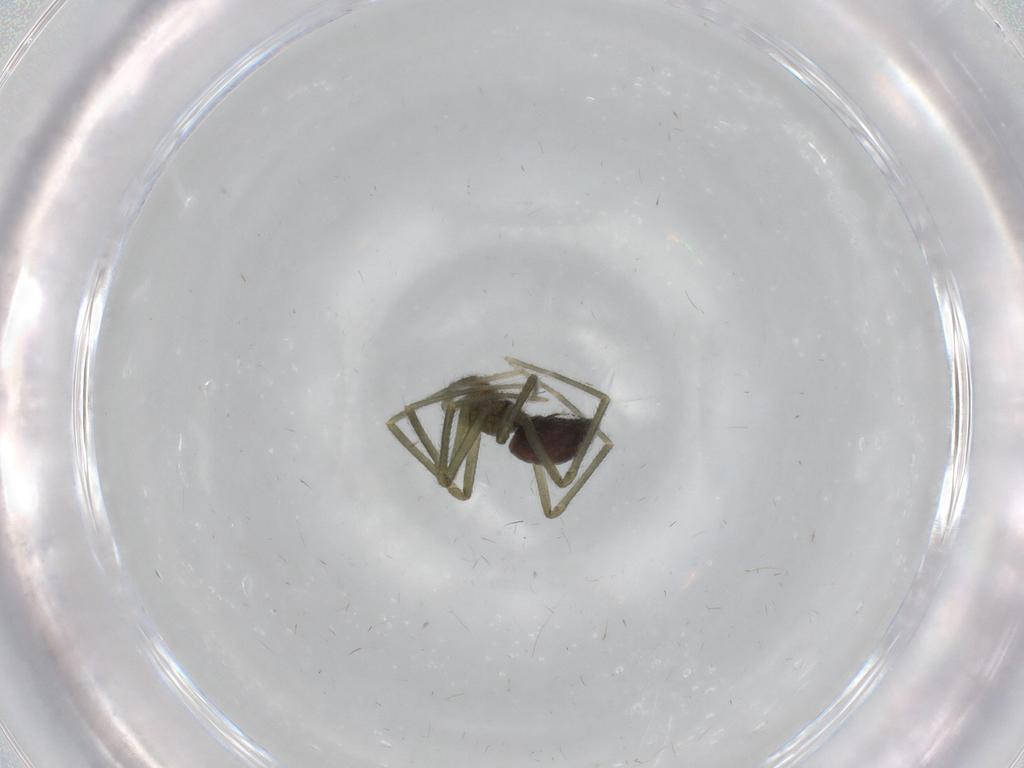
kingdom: Animalia
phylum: Arthropoda
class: Arachnida
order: Araneae
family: Linyphiidae
